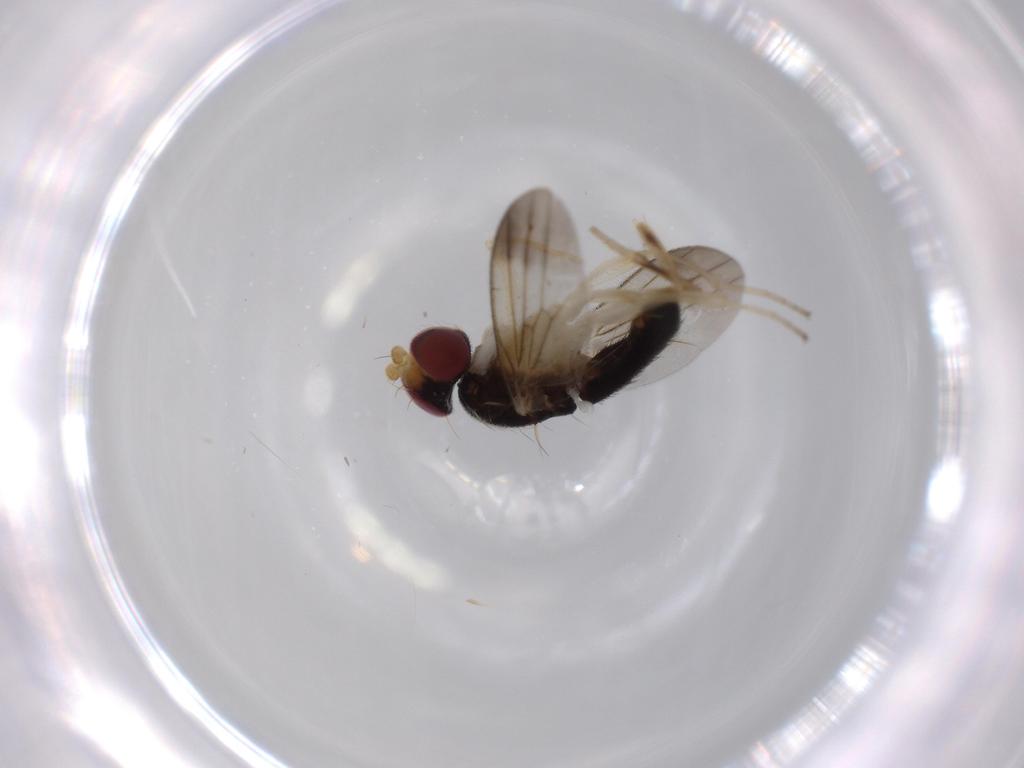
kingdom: Animalia
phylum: Arthropoda
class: Insecta
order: Diptera
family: Clusiidae
